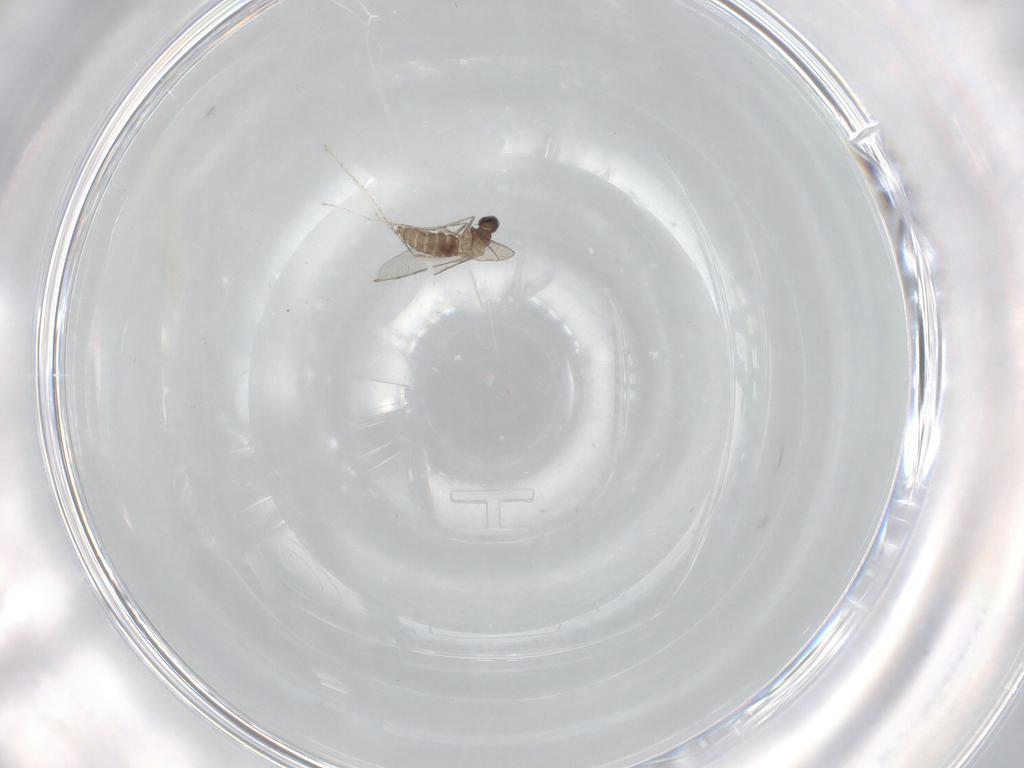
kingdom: Animalia
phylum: Arthropoda
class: Insecta
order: Diptera
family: Cecidomyiidae
